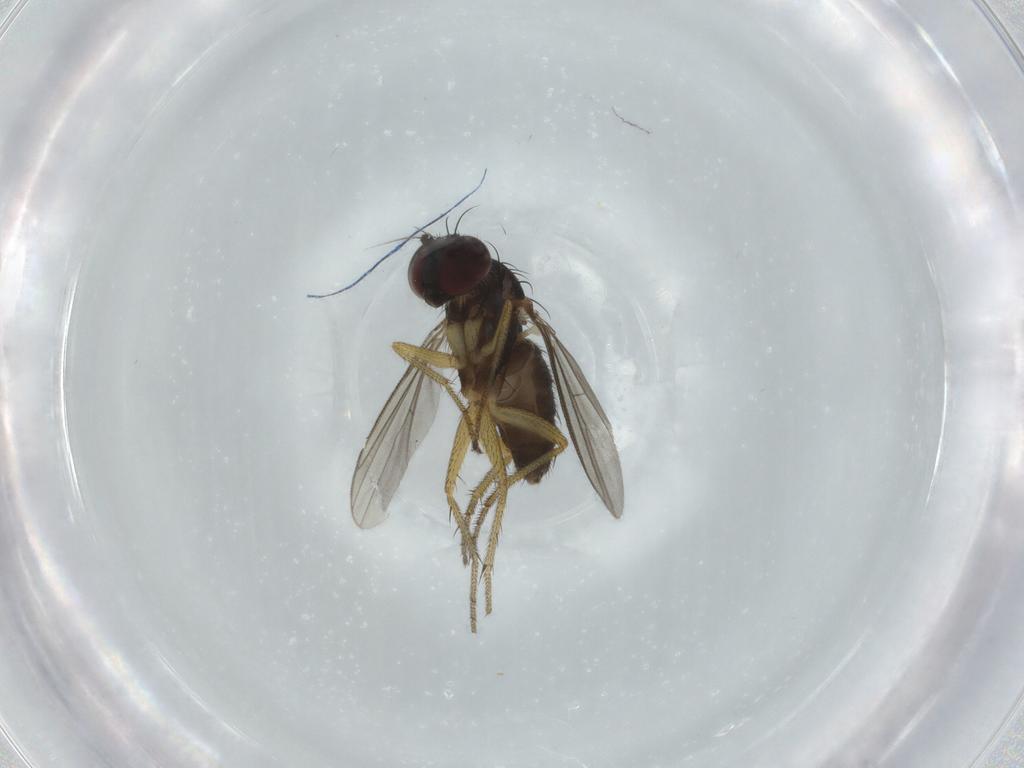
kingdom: Animalia
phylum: Arthropoda
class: Insecta
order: Diptera
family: Dolichopodidae
